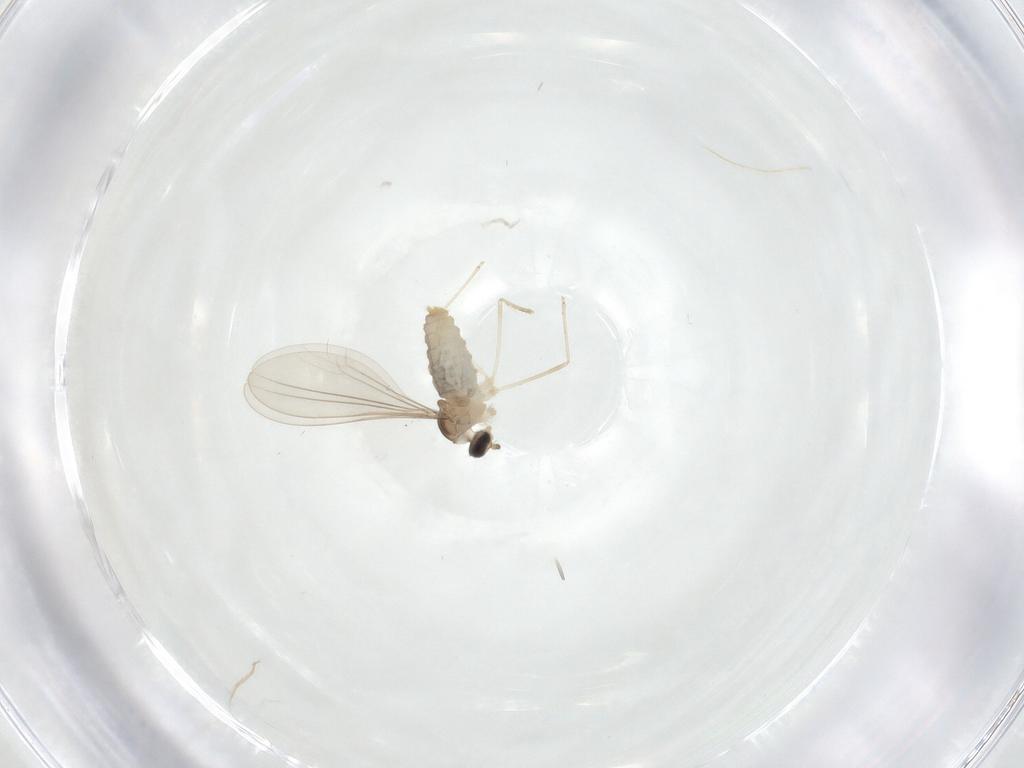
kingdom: Animalia
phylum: Arthropoda
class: Insecta
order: Diptera
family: Cecidomyiidae
